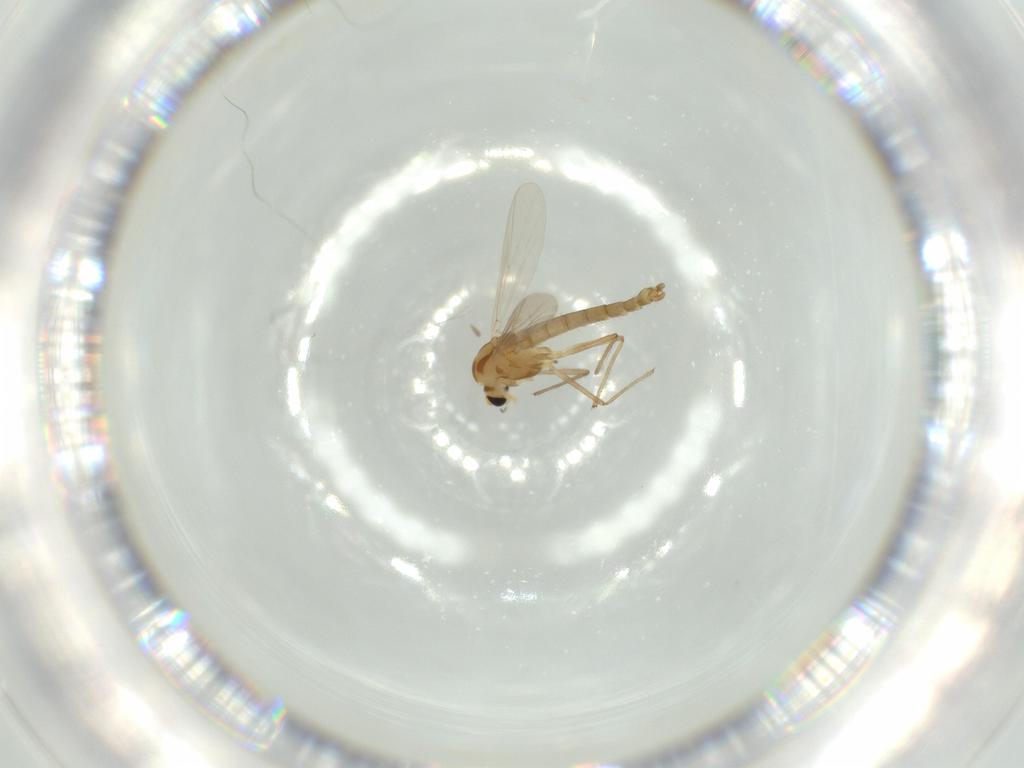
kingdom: Animalia
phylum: Arthropoda
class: Insecta
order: Diptera
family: Chironomidae
